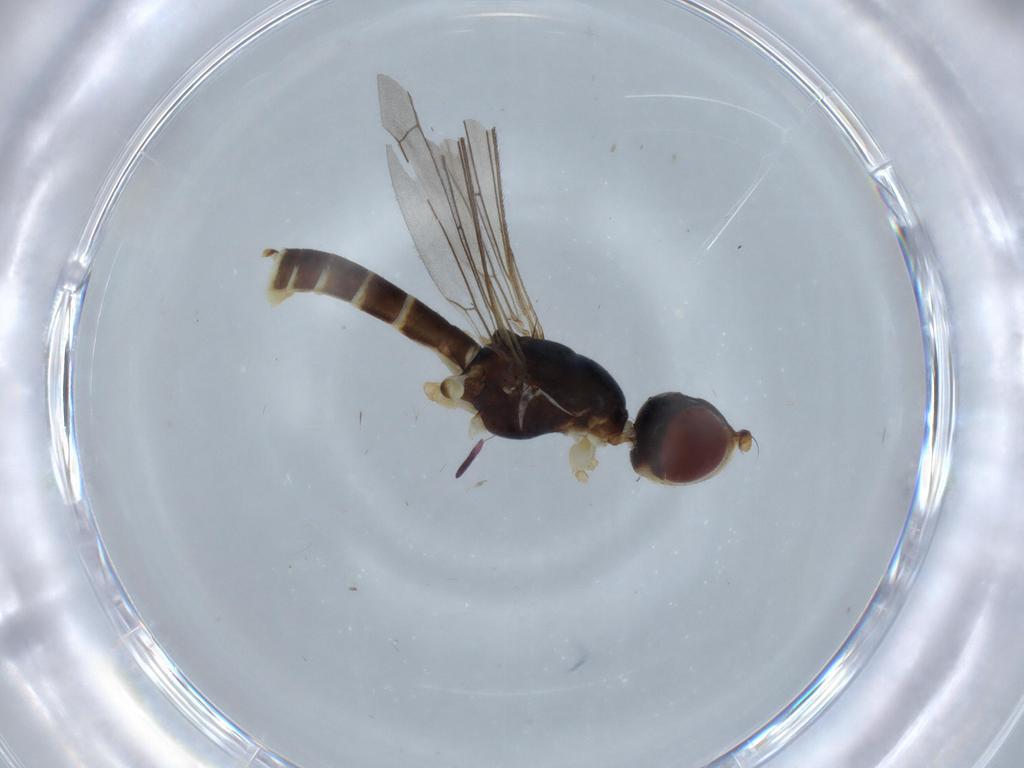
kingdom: Animalia
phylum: Arthropoda
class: Insecta
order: Diptera
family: Micropezidae
